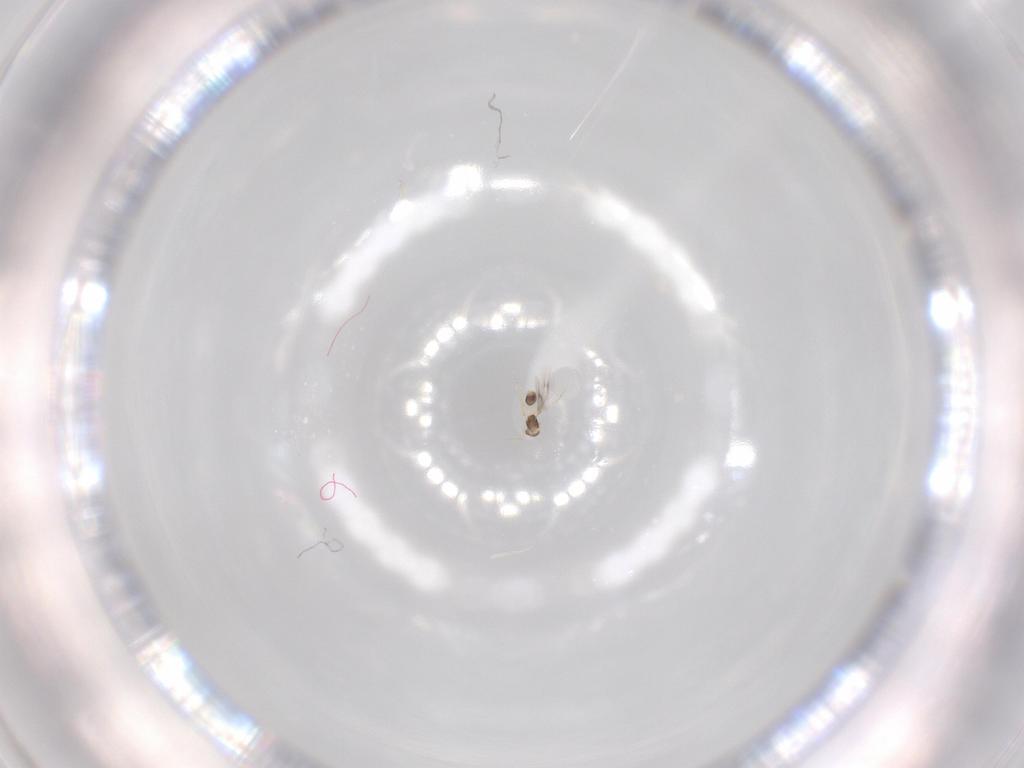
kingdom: Animalia
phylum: Arthropoda
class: Insecta
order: Hymenoptera
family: Mymarommatidae
